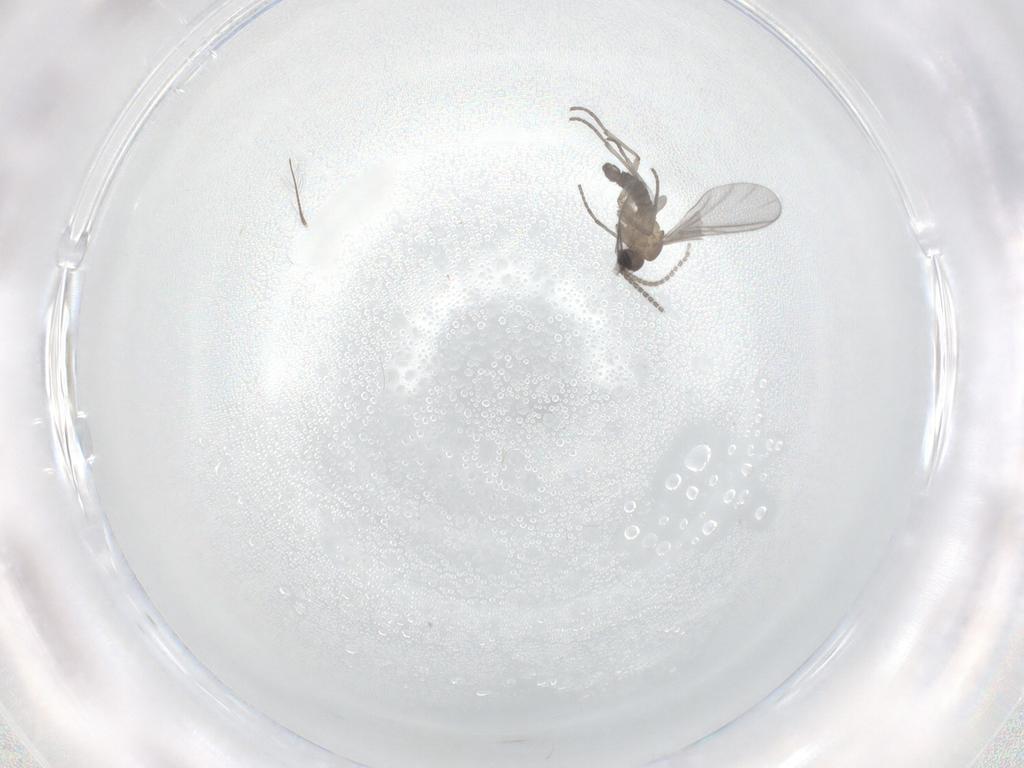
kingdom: Animalia
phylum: Arthropoda
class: Insecta
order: Diptera
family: Sciaridae
